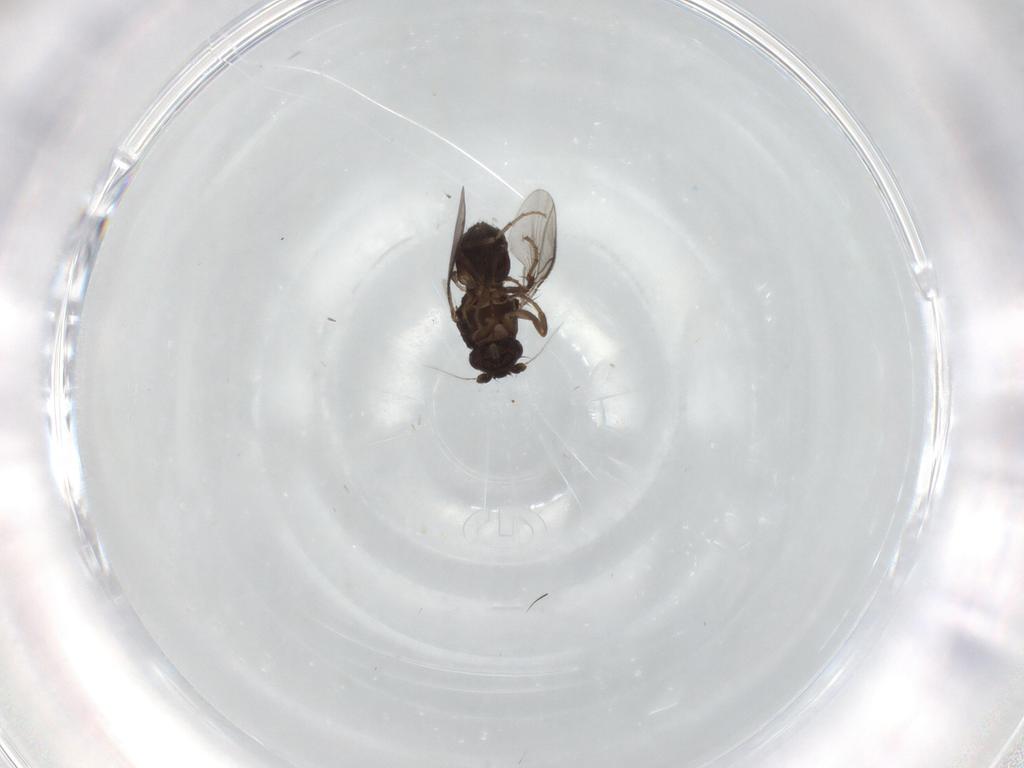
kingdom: Animalia
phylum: Arthropoda
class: Insecta
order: Diptera
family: Sphaeroceridae
